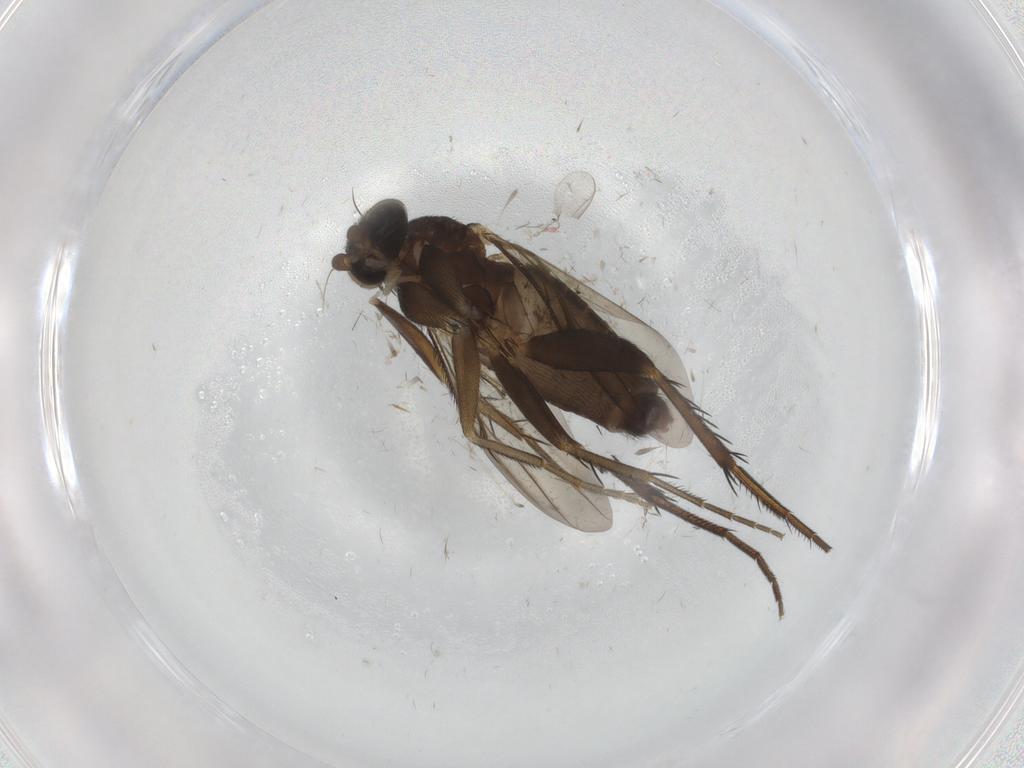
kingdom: Animalia
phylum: Arthropoda
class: Insecta
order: Diptera
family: Phoridae
